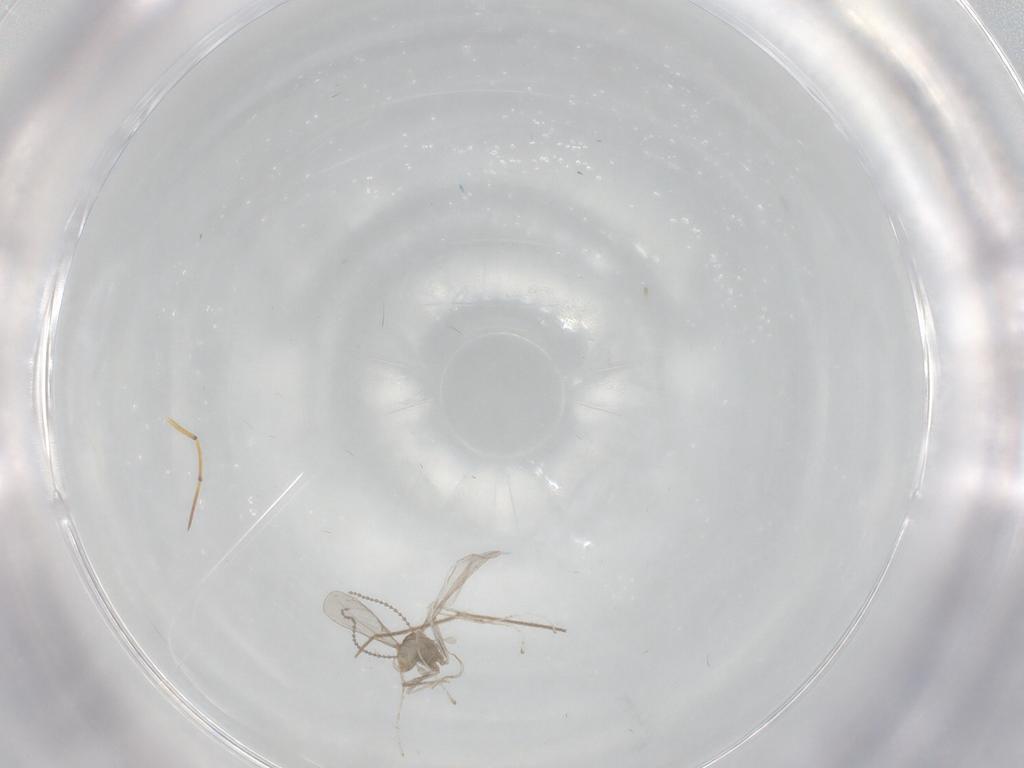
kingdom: Animalia
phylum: Arthropoda
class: Insecta
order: Diptera
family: Cecidomyiidae
